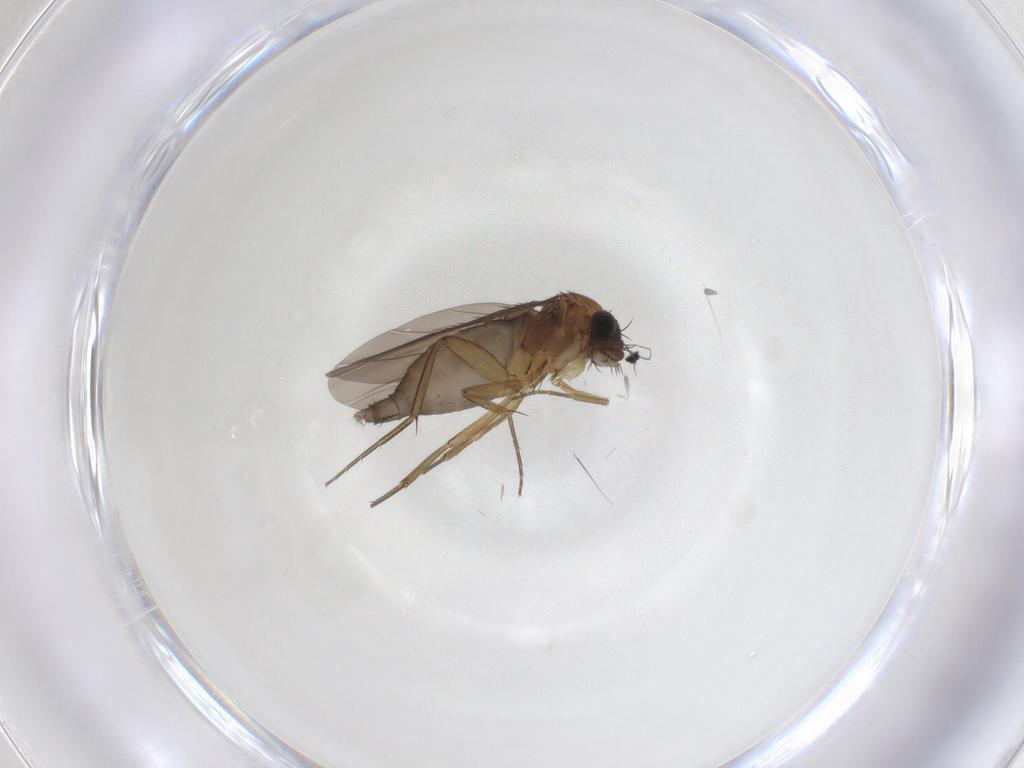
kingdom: Animalia
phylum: Arthropoda
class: Insecta
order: Diptera
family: Phoridae
